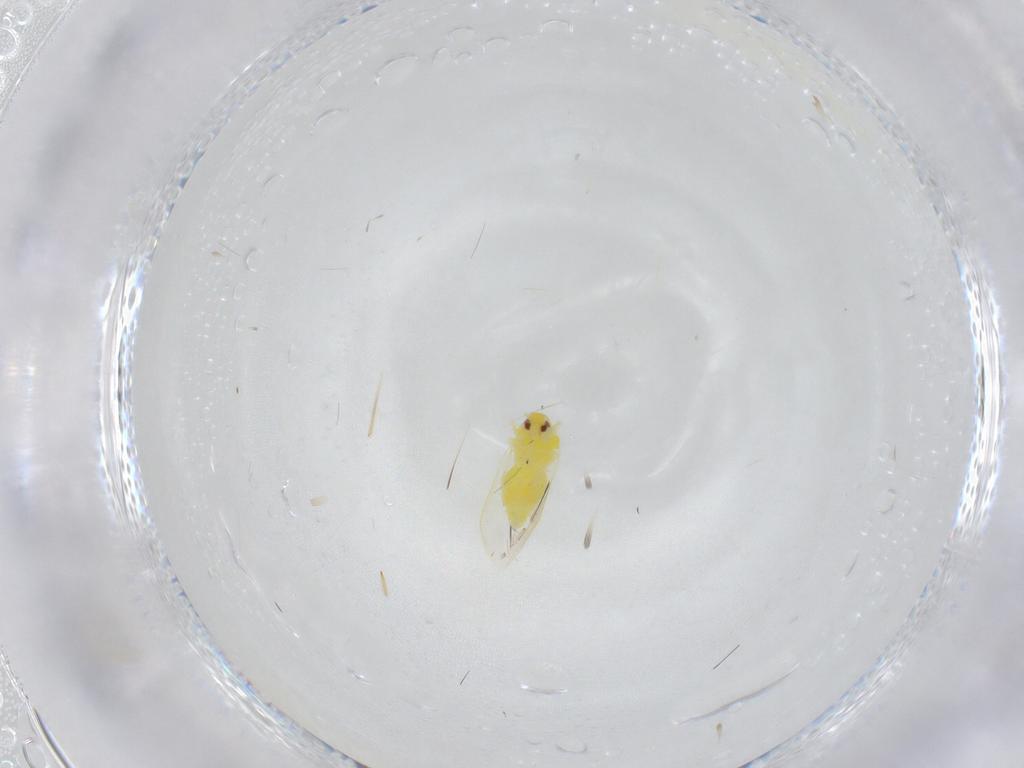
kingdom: Animalia
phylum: Arthropoda
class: Insecta
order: Hemiptera
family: Aleyrodidae
